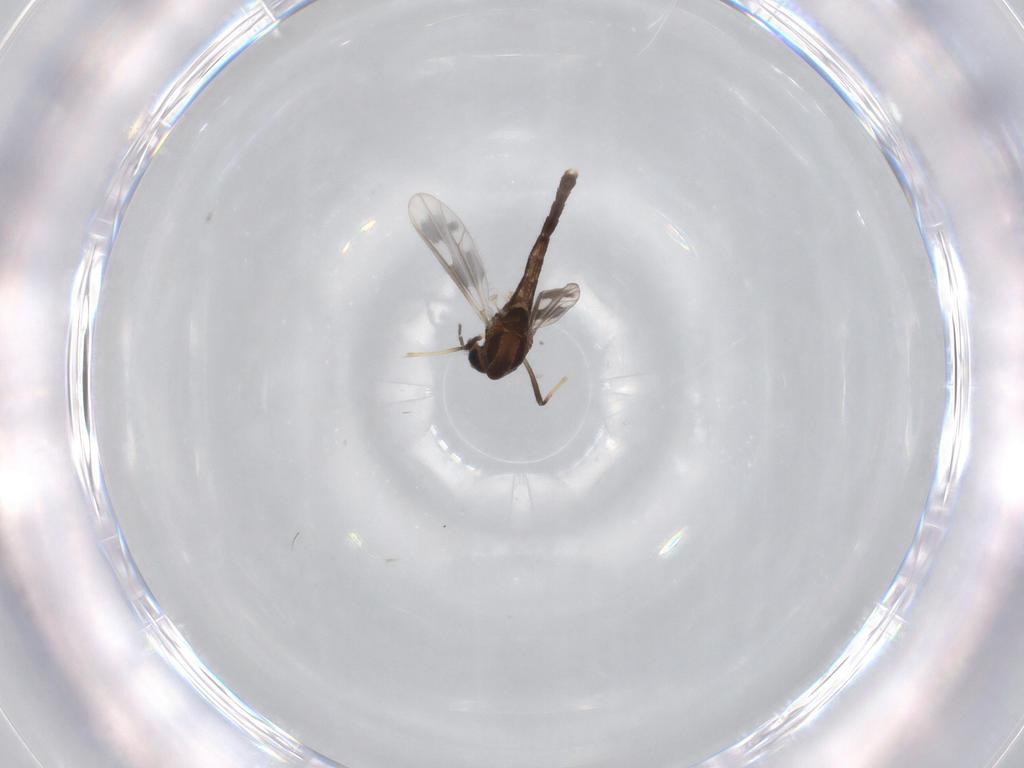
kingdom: Animalia
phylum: Arthropoda
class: Insecta
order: Diptera
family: Chironomidae
